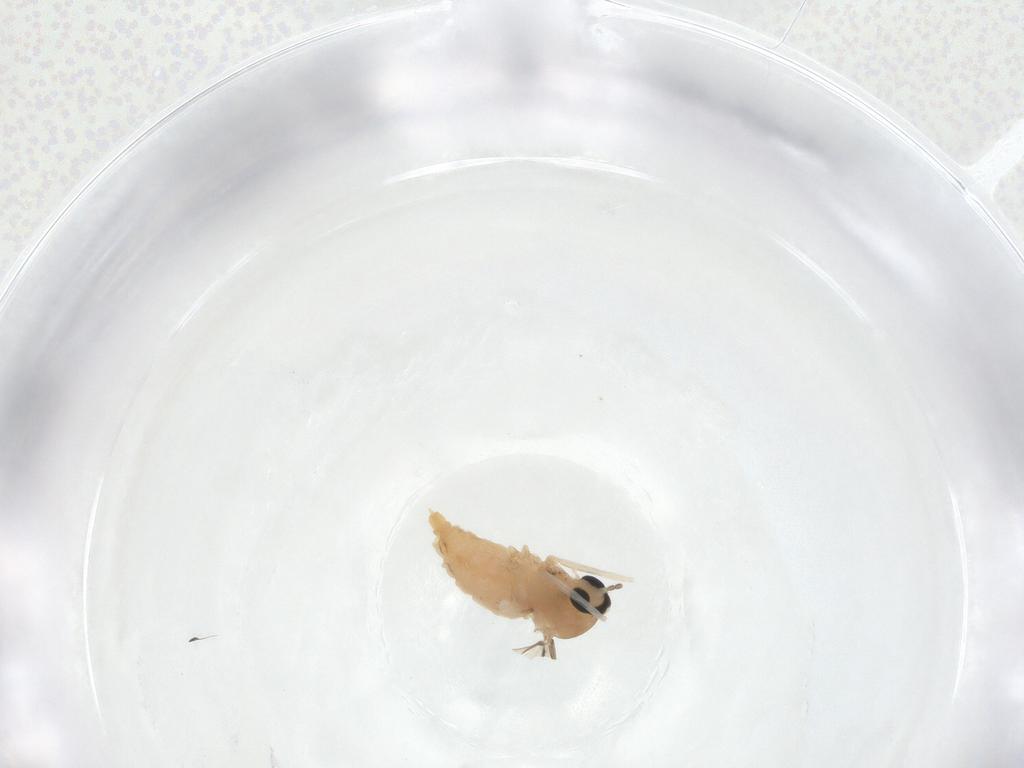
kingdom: Animalia
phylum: Arthropoda
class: Insecta
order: Diptera
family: Cecidomyiidae
